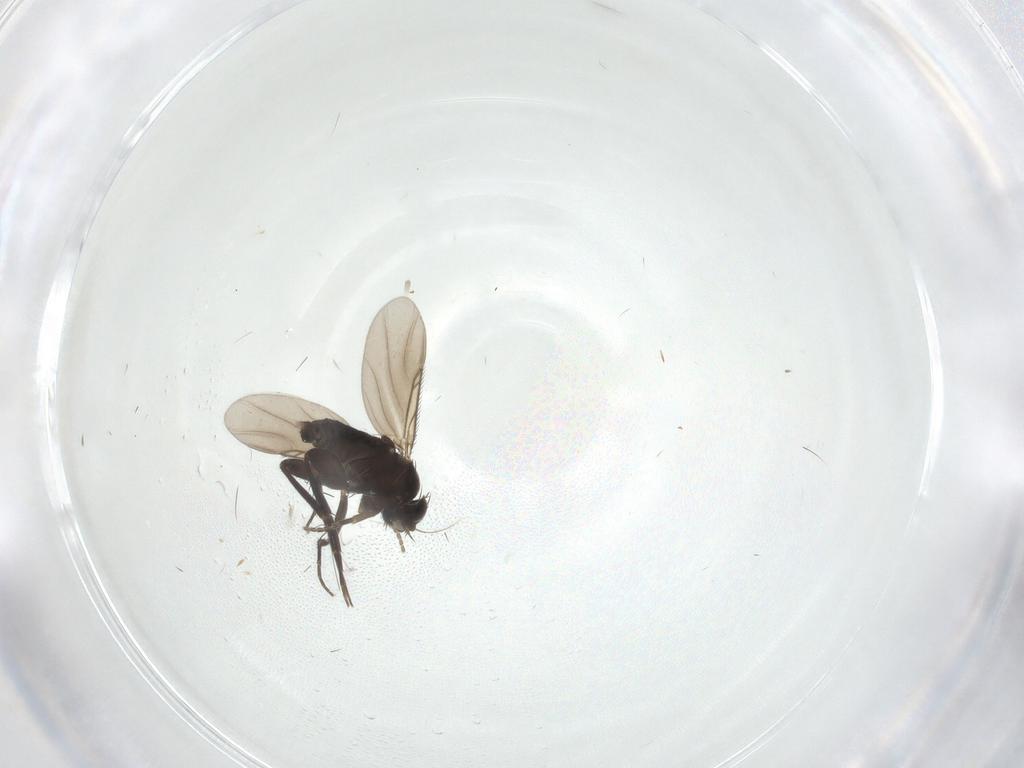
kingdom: Animalia
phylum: Arthropoda
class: Insecta
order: Diptera
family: Phoridae
